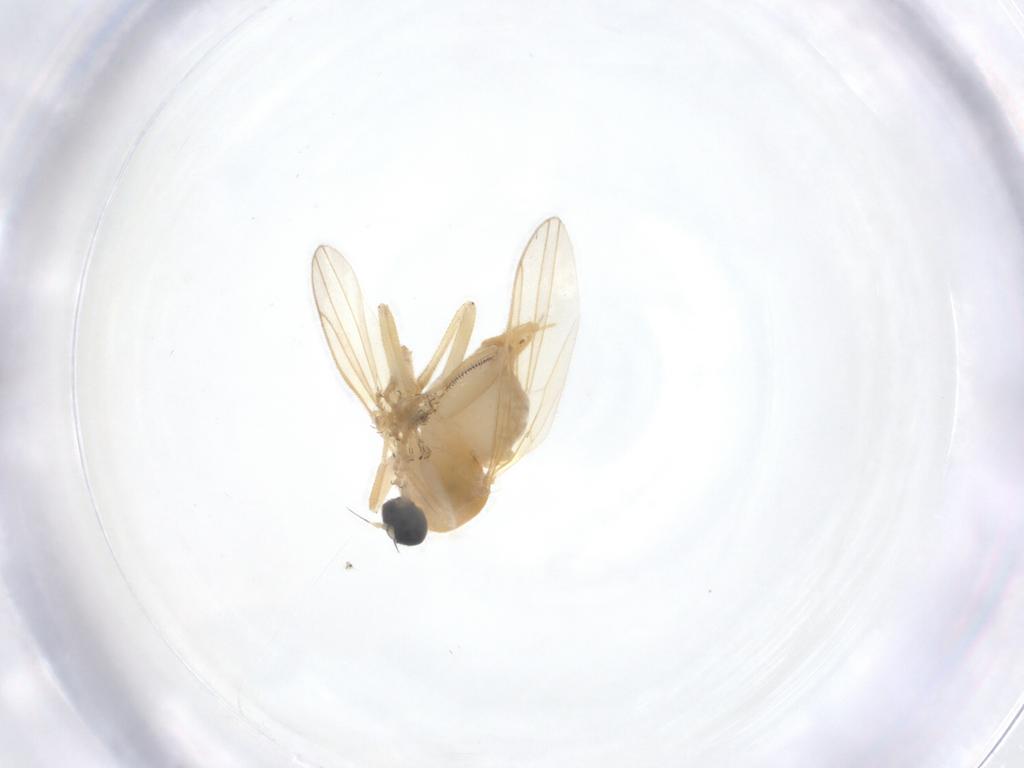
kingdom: Animalia
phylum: Arthropoda
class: Insecta
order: Diptera
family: Hybotidae
